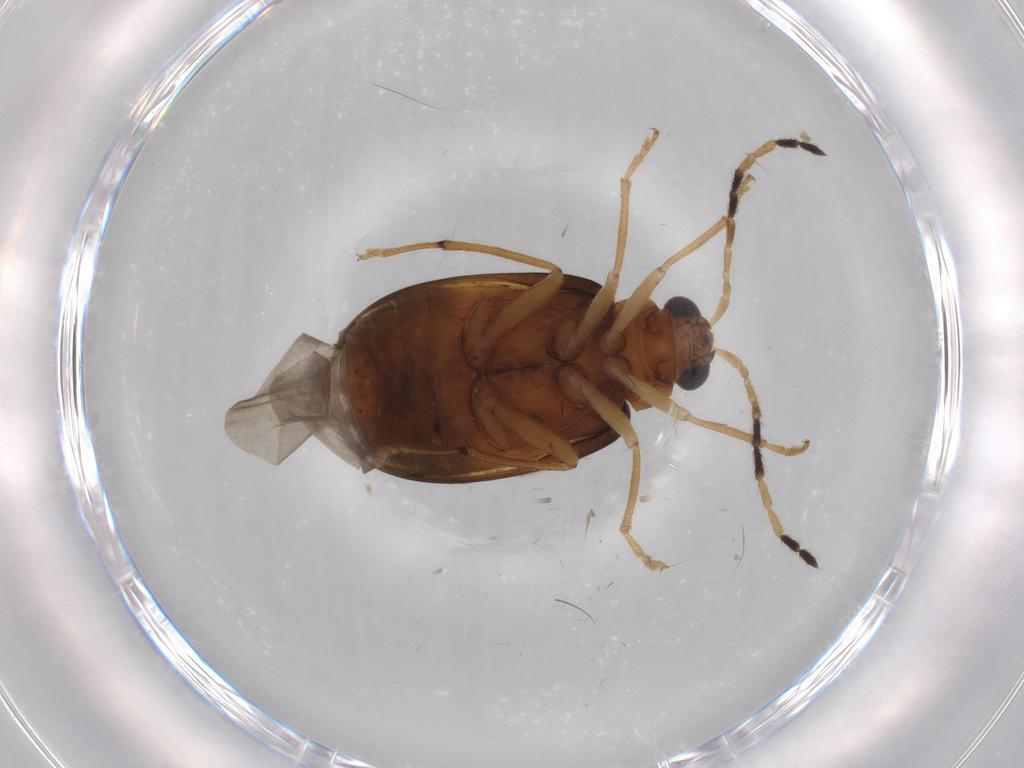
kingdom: Animalia
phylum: Arthropoda
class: Insecta
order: Coleoptera
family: Chrysomelidae
